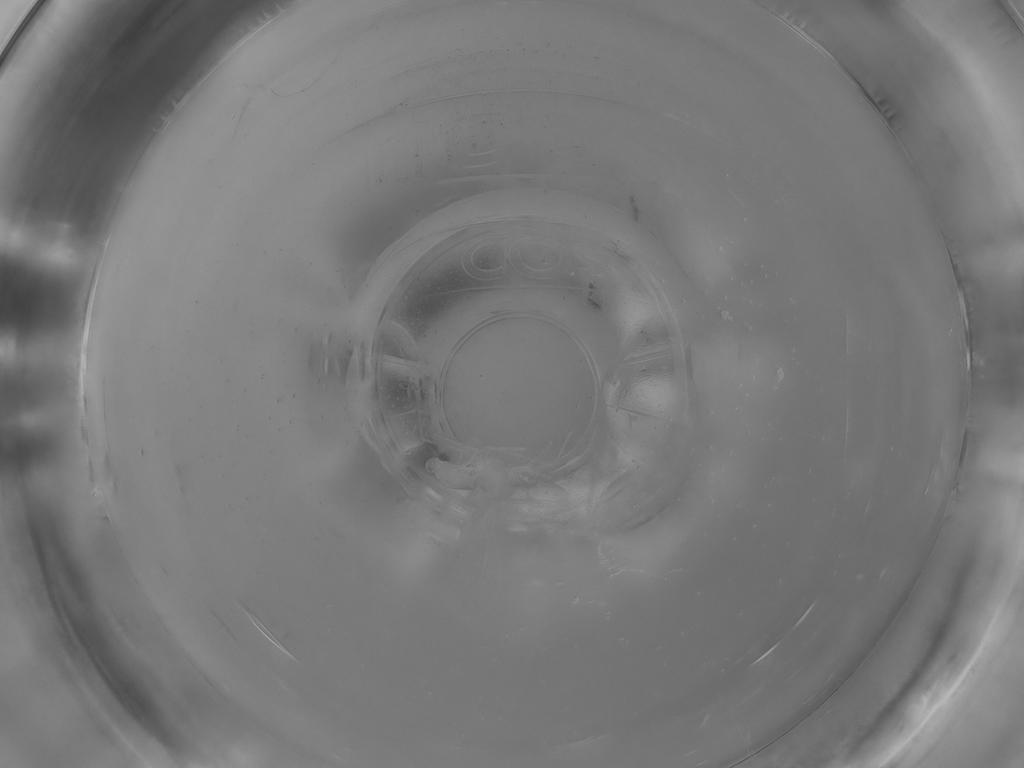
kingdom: Animalia
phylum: Arthropoda
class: Insecta
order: Diptera
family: Cecidomyiidae
